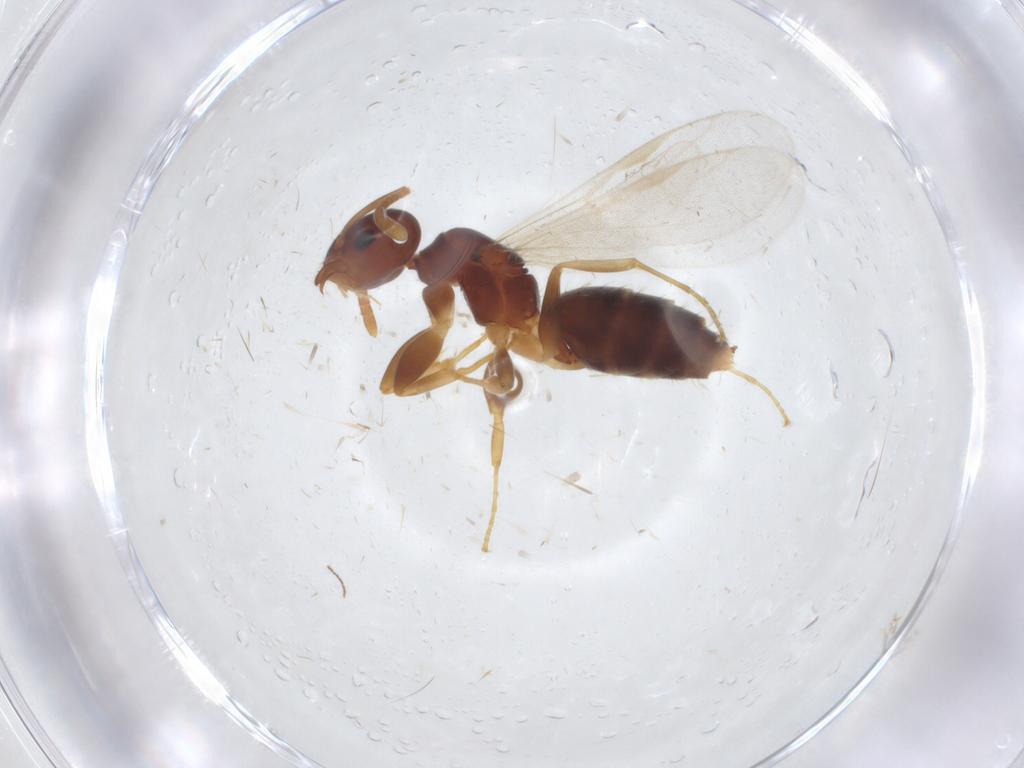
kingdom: Animalia
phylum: Arthropoda
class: Insecta
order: Hymenoptera
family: Formicidae
